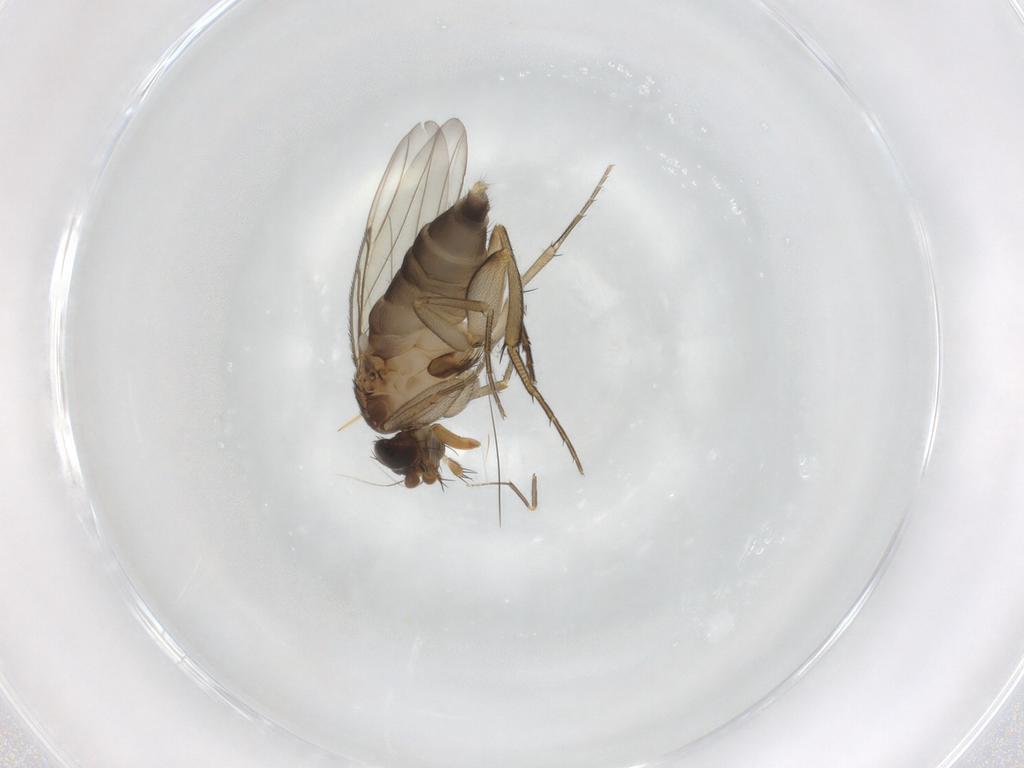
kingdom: Animalia
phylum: Arthropoda
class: Insecta
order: Diptera
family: Phoridae
